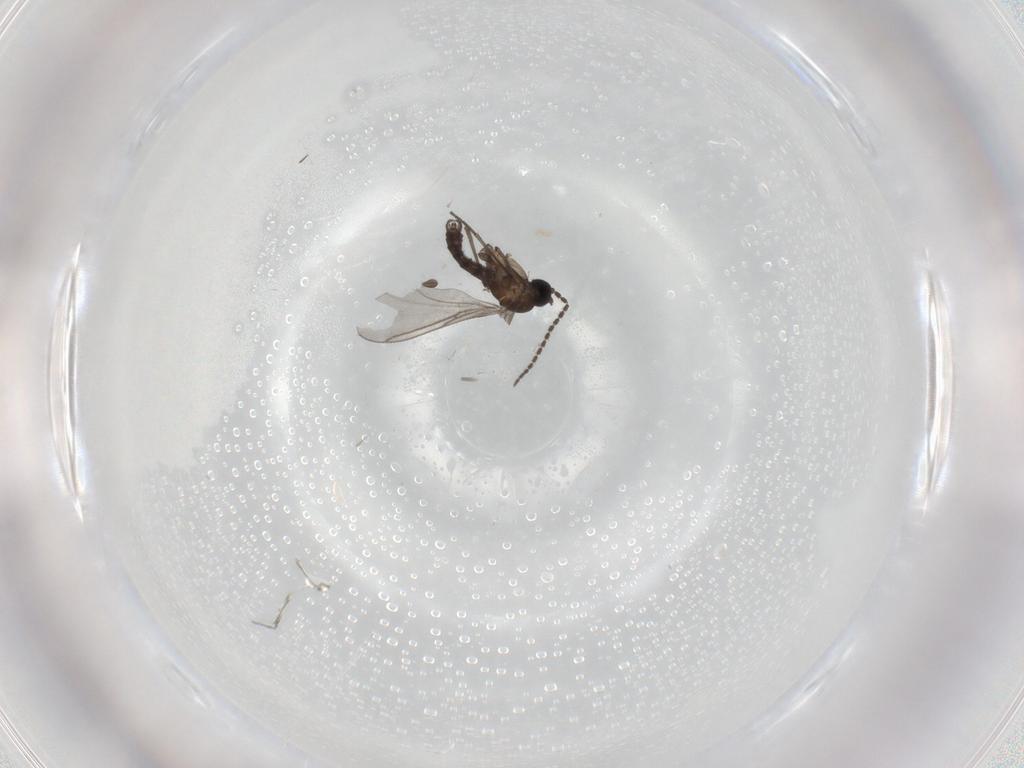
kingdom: Animalia
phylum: Arthropoda
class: Insecta
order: Diptera
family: Sciaridae
